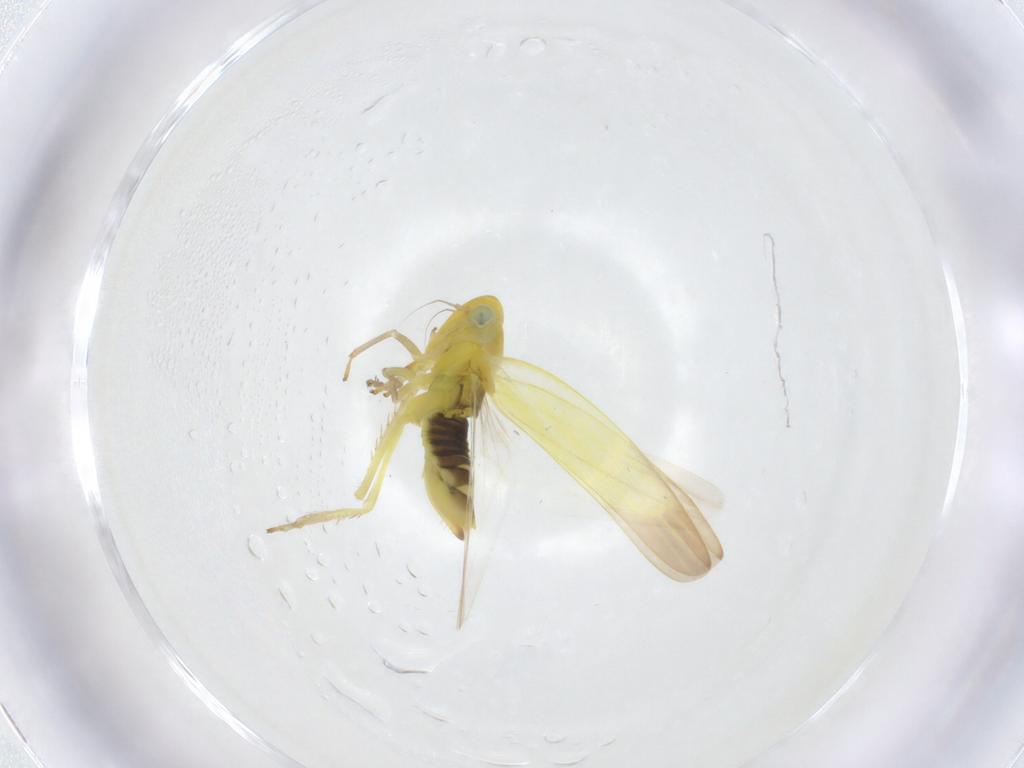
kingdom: Animalia
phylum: Arthropoda
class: Insecta
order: Hemiptera
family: Cicadellidae
